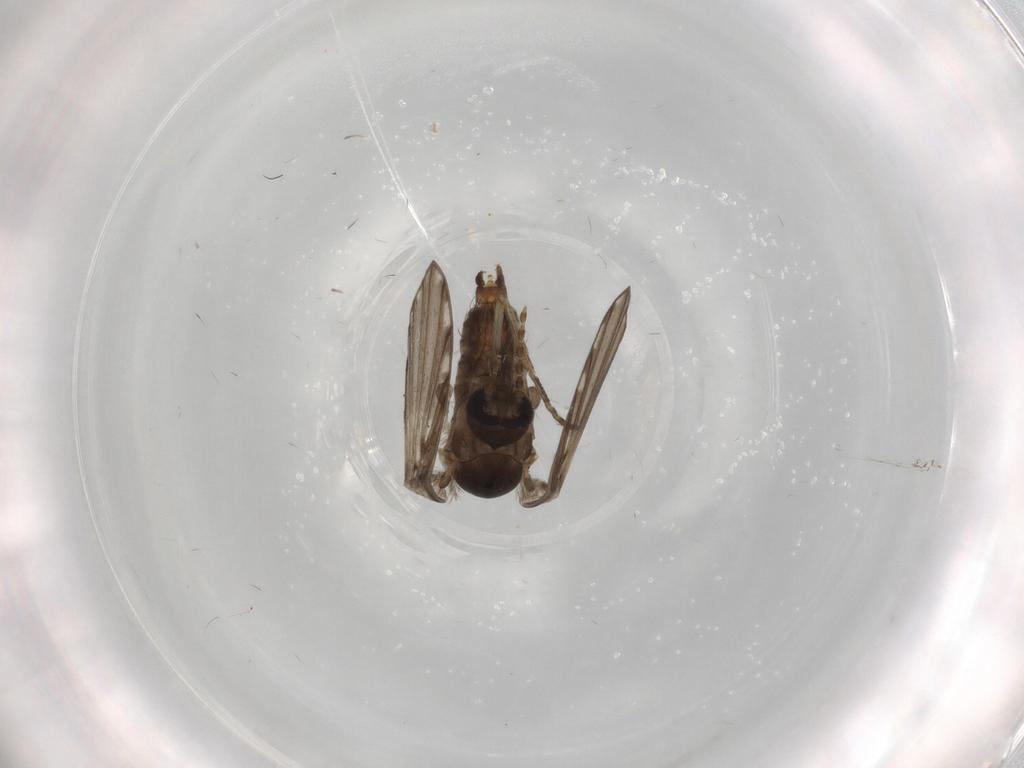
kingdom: Animalia
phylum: Arthropoda
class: Insecta
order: Diptera
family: Cecidomyiidae
